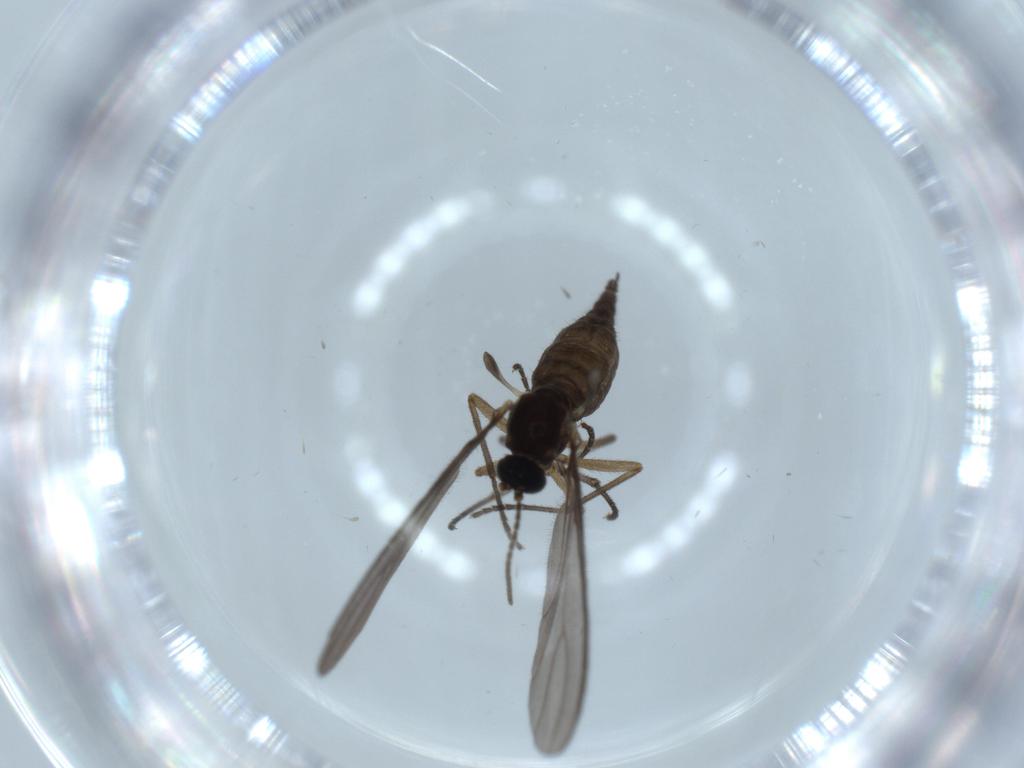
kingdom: Animalia
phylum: Arthropoda
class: Insecta
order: Diptera
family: Sciaridae
